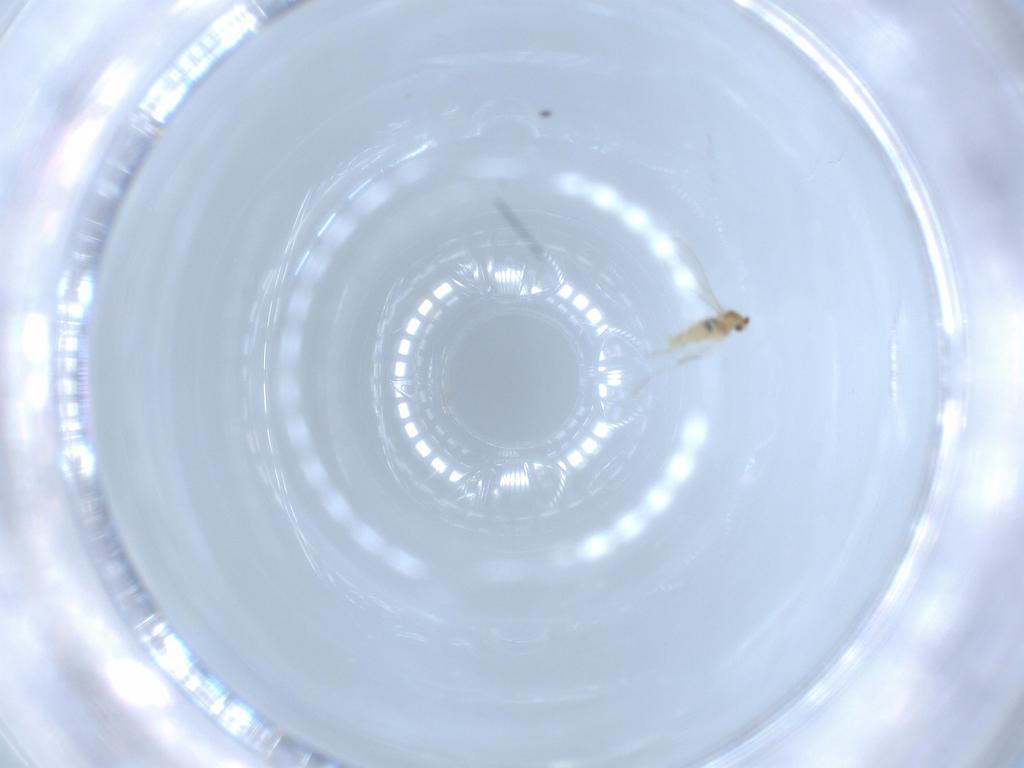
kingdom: Animalia
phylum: Arthropoda
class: Insecta
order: Diptera
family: Cecidomyiidae
